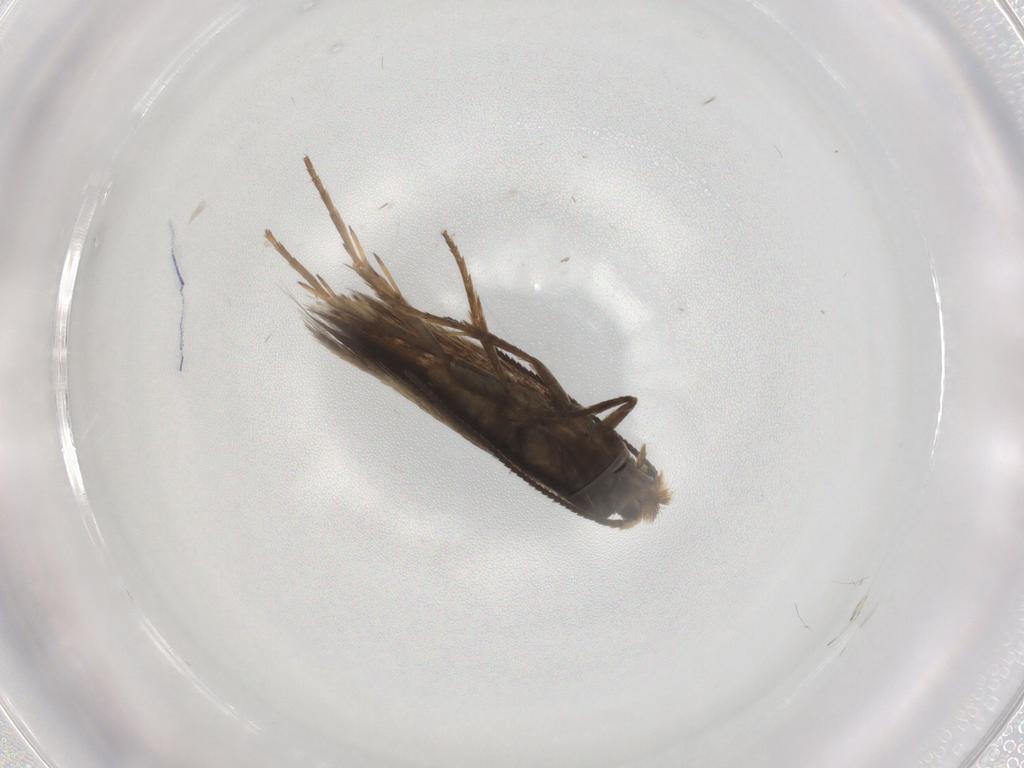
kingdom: Animalia
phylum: Arthropoda
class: Insecta
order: Lepidoptera
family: Nepticulidae
